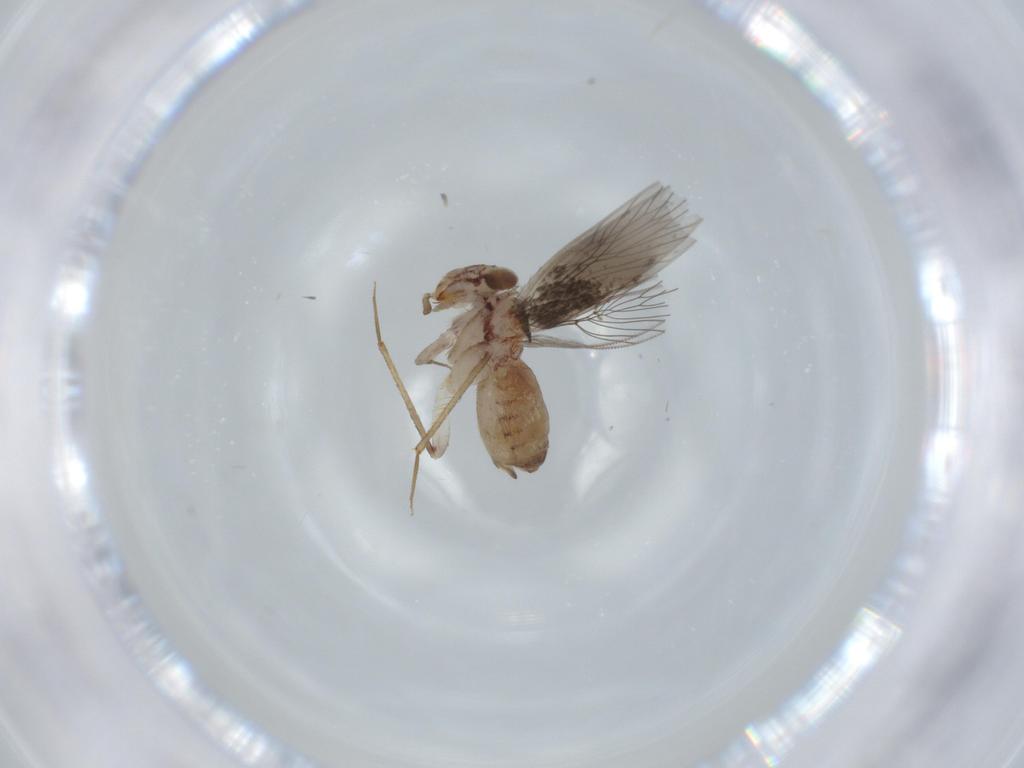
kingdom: Animalia
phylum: Arthropoda
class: Insecta
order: Psocodea
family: Lepidopsocidae
